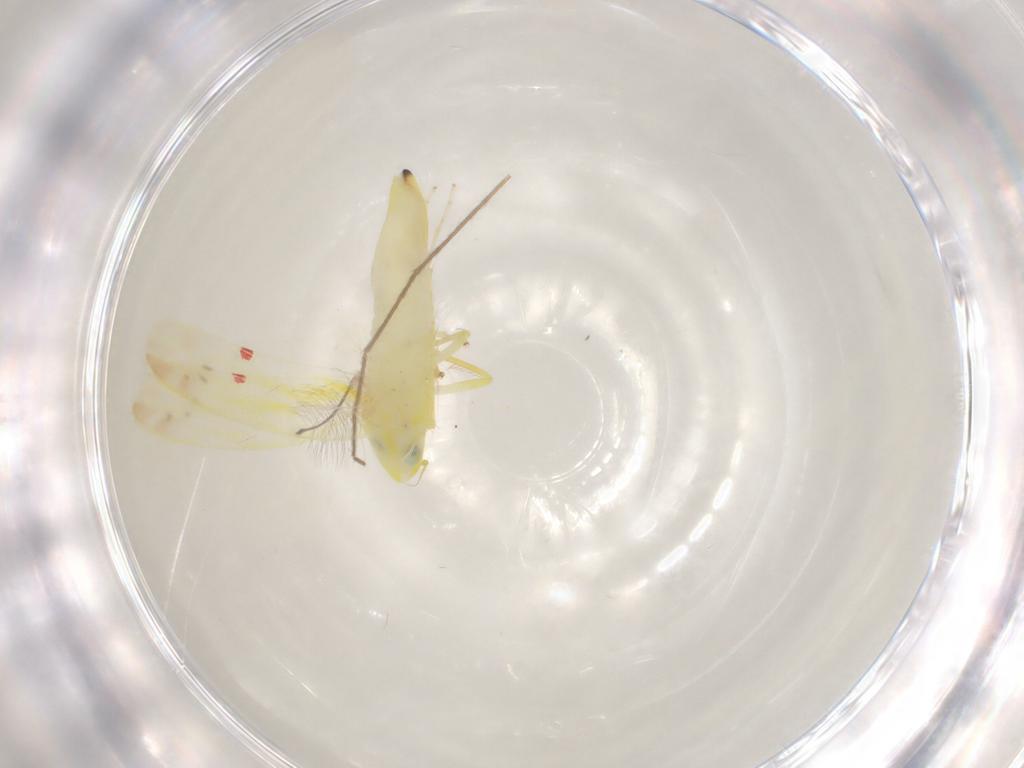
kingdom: Animalia
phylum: Arthropoda
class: Insecta
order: Hemiptera
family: Cicadellidae
